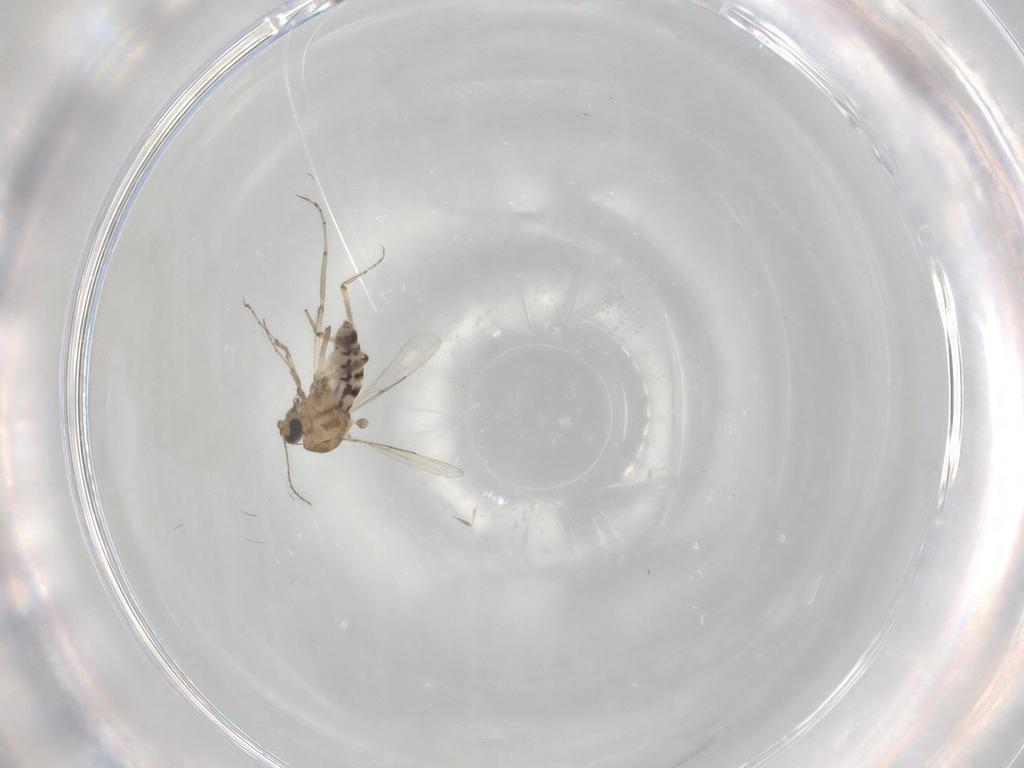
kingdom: Animalia
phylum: Arthropoda
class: Insecta
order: Diptera
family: Ceratopogonidae
